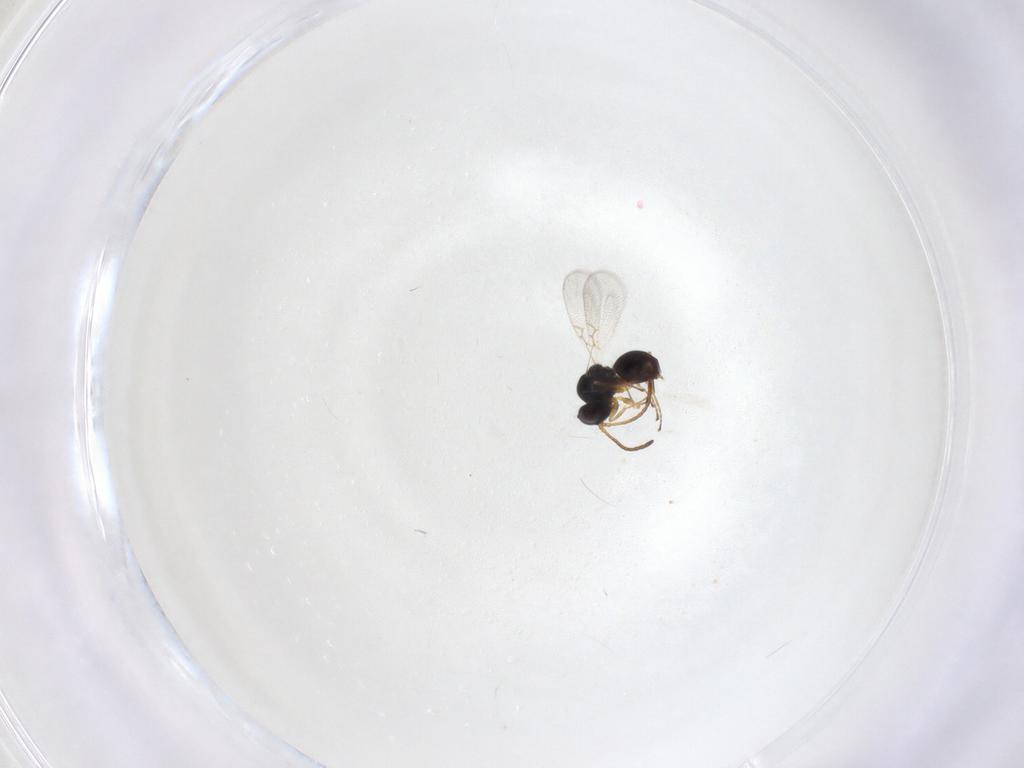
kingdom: Animalia
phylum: Arthropoda
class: Insecta
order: Hymenoptera
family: Figitidae
